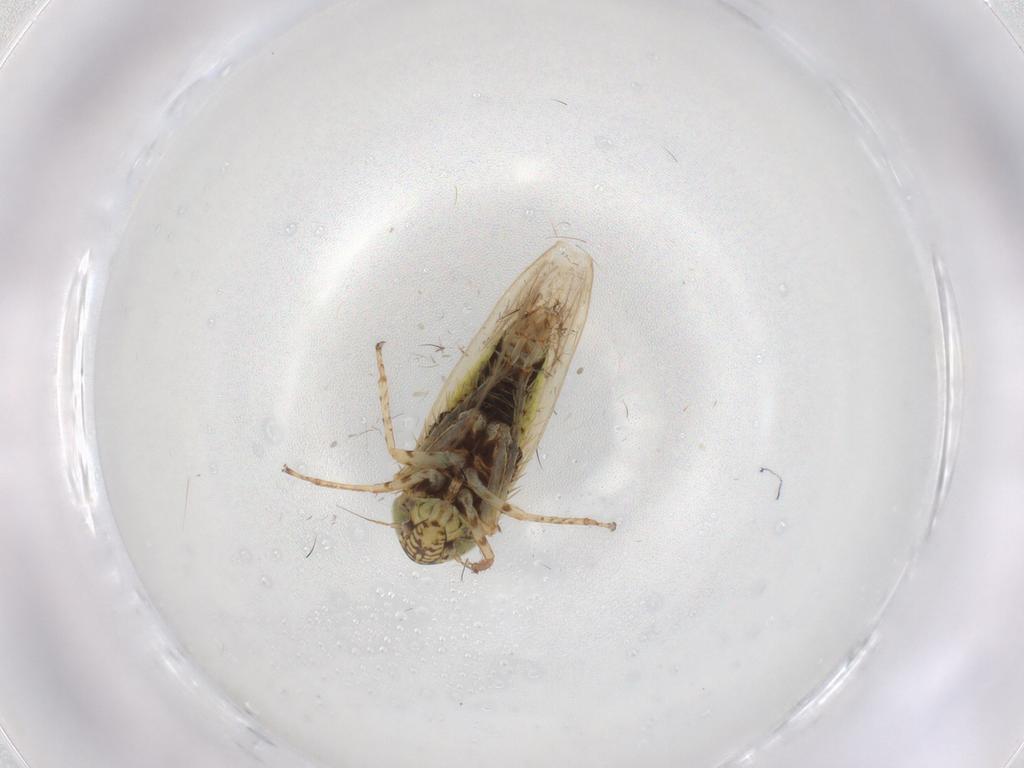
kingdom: Animalia
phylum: Arthropoda
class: Insecta
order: Hemiptera
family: Cicadellidae
